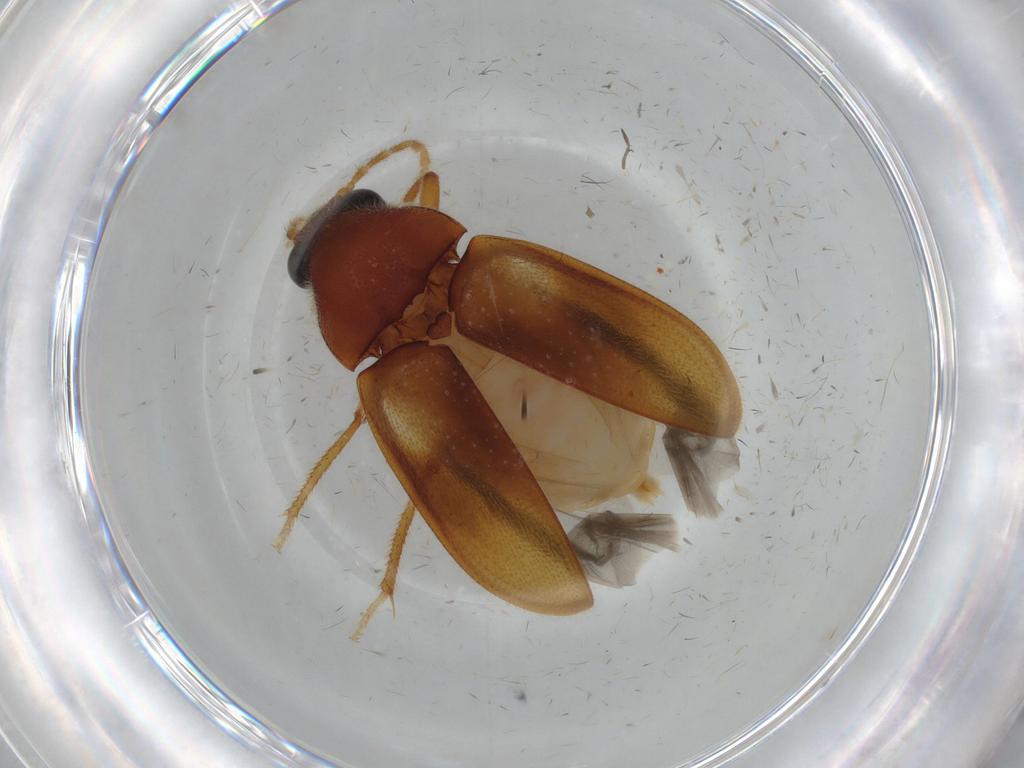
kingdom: Animalia
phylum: Arthropoda
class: Insecta
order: Coleoptera
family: Ptilodactylidae
